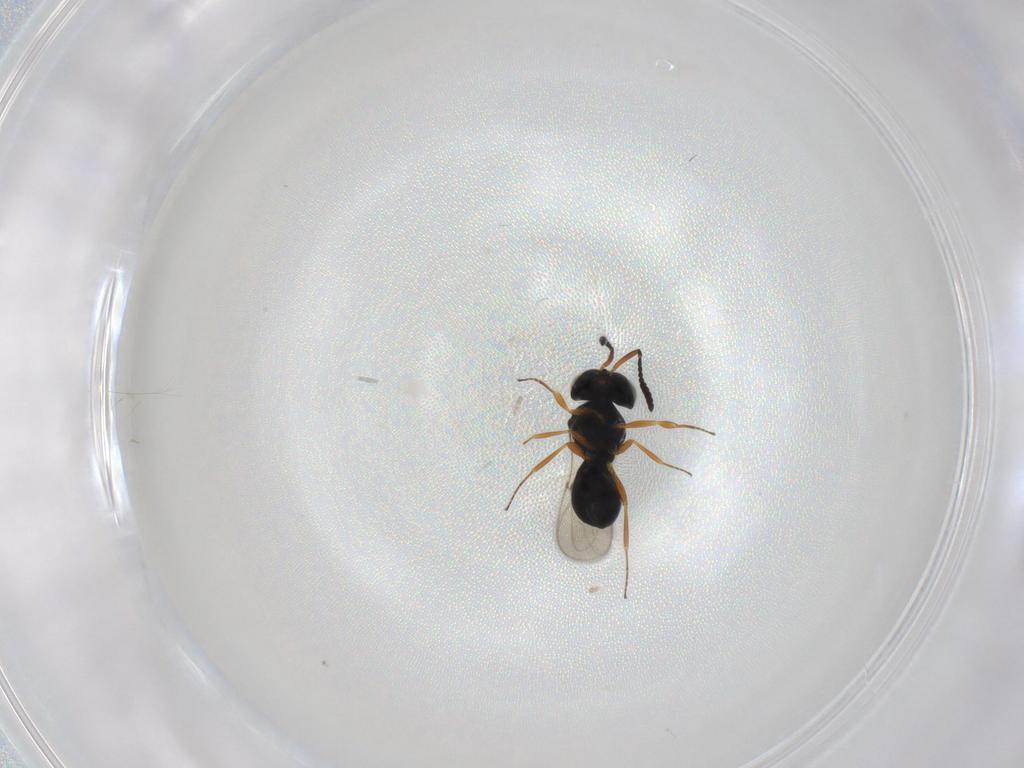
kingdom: Animalia
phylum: Arthropoda
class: Insecta
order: Hymenoptera
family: Scelionidae
